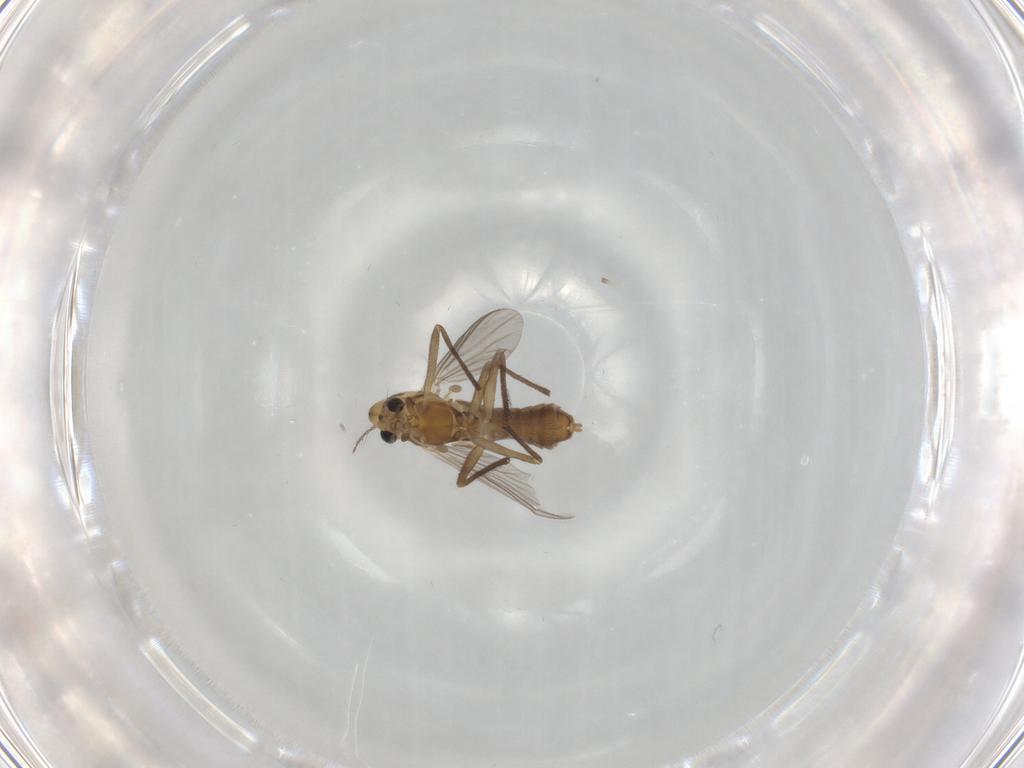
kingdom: Animalia
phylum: Arthropoda
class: Insecta
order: Diptera
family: Chironomidae
